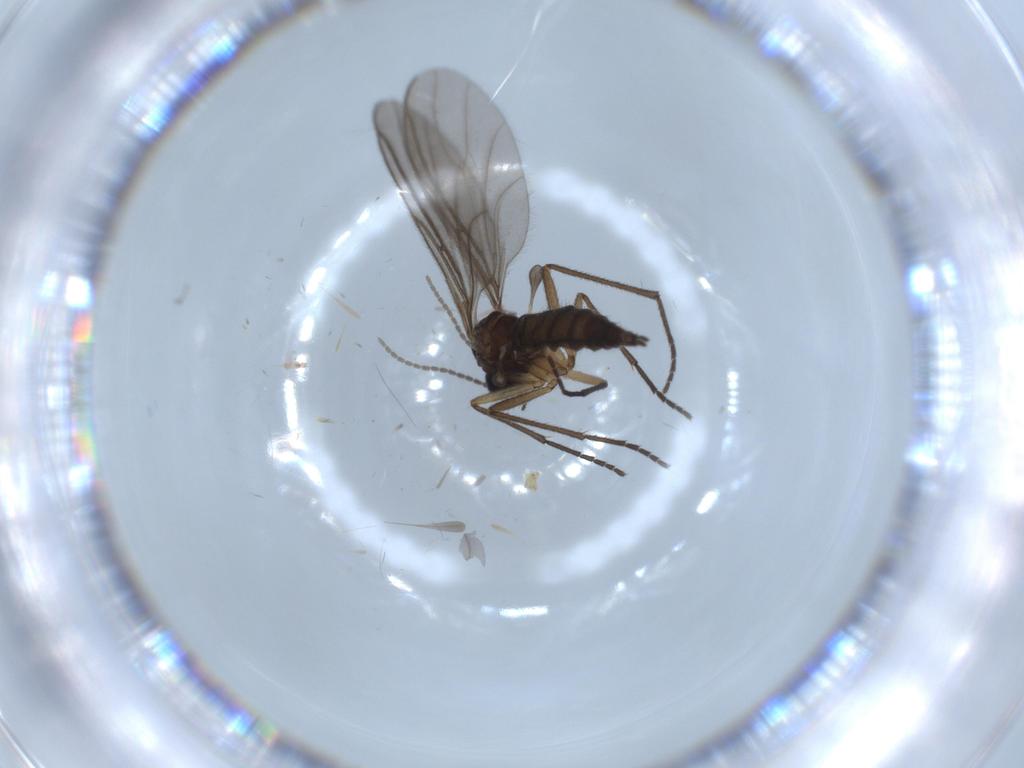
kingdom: Animalia
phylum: Arthropoda
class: Insecta
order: Diptera
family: Sciaridae
